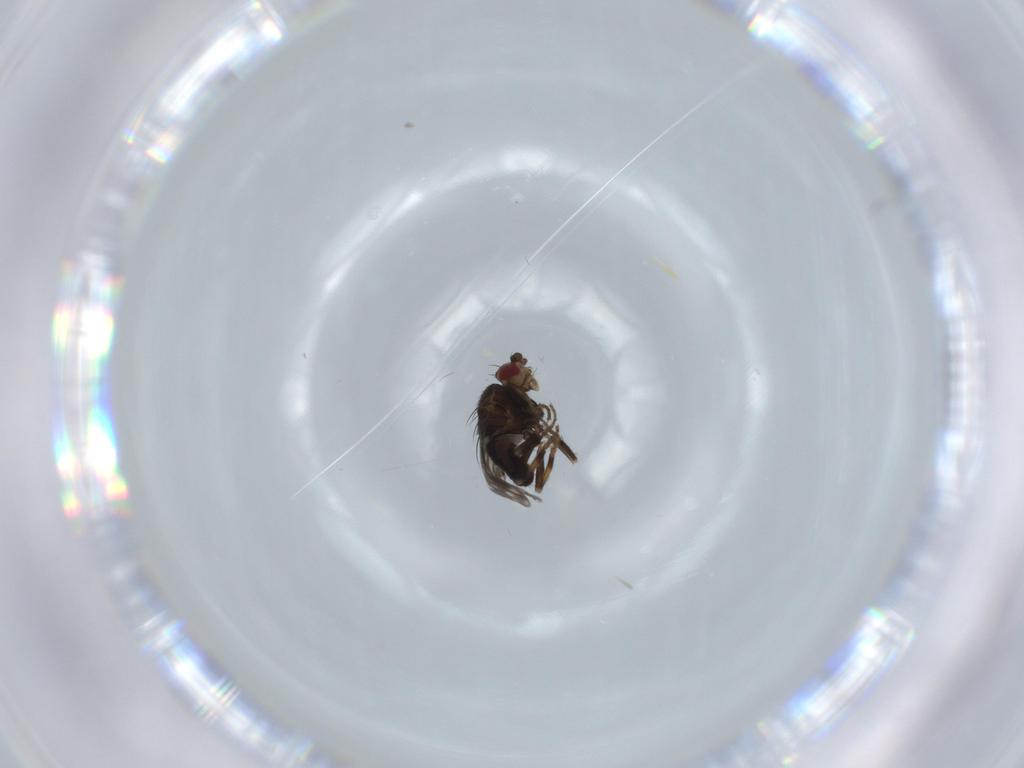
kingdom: Animalia
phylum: Arthropoda
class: Insecta
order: Diptera
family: Sphaeroceridae
